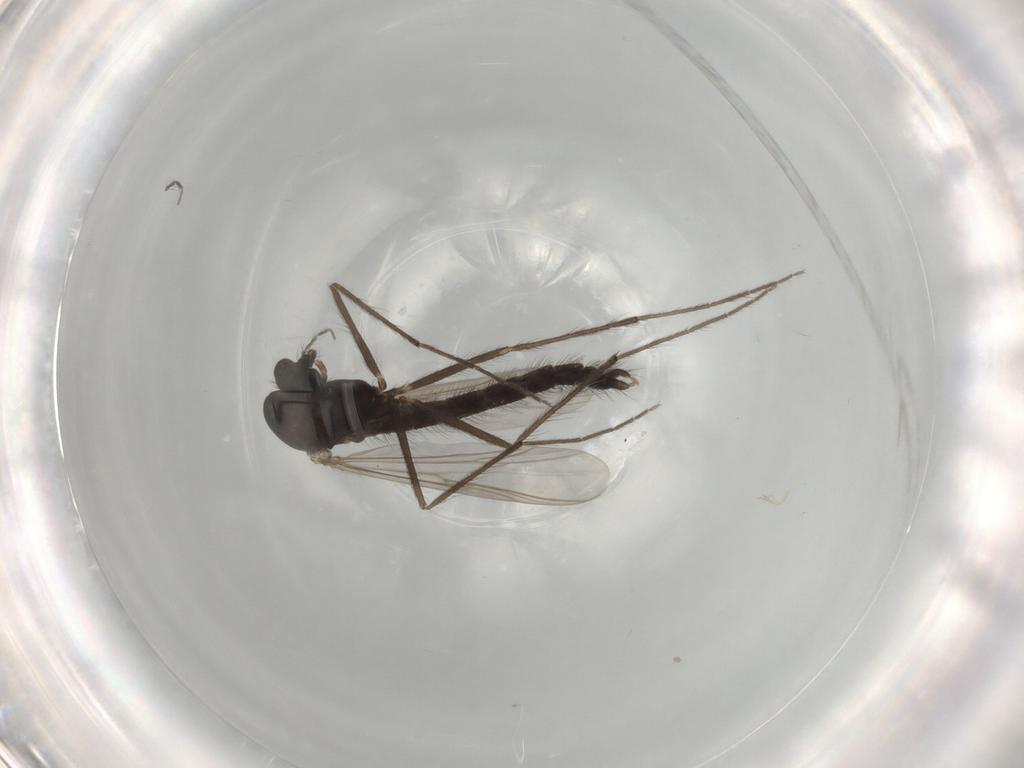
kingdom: Animalia
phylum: Arthropoda
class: Insecta
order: Diptera
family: Chironomidae
